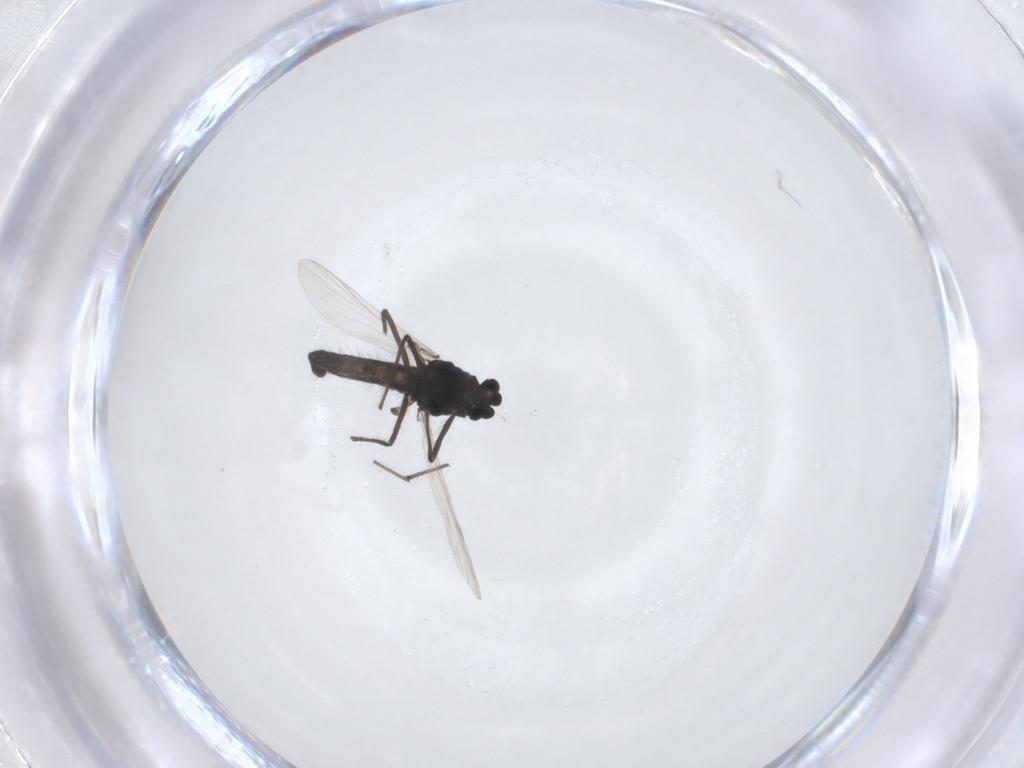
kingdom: Animalia
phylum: Arthropoda
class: Insecta
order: Diptera
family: Chironomidae
